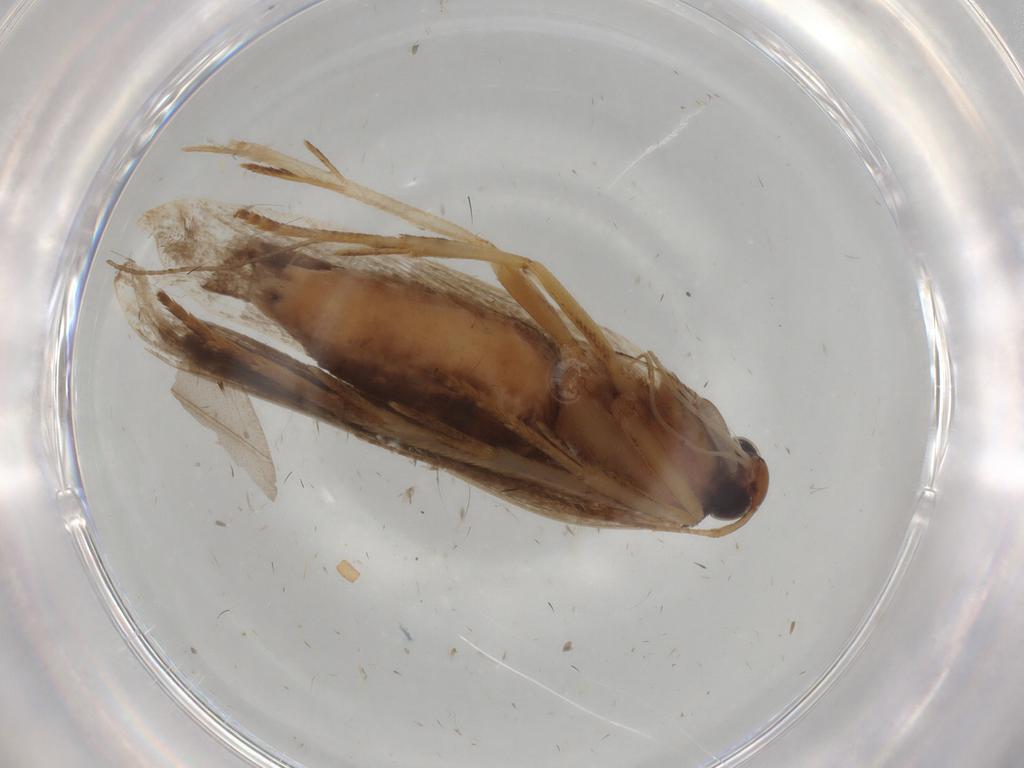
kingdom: Animalia
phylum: Arthropoda
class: Insecta
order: Lepidoptera
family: Gelechiidae
